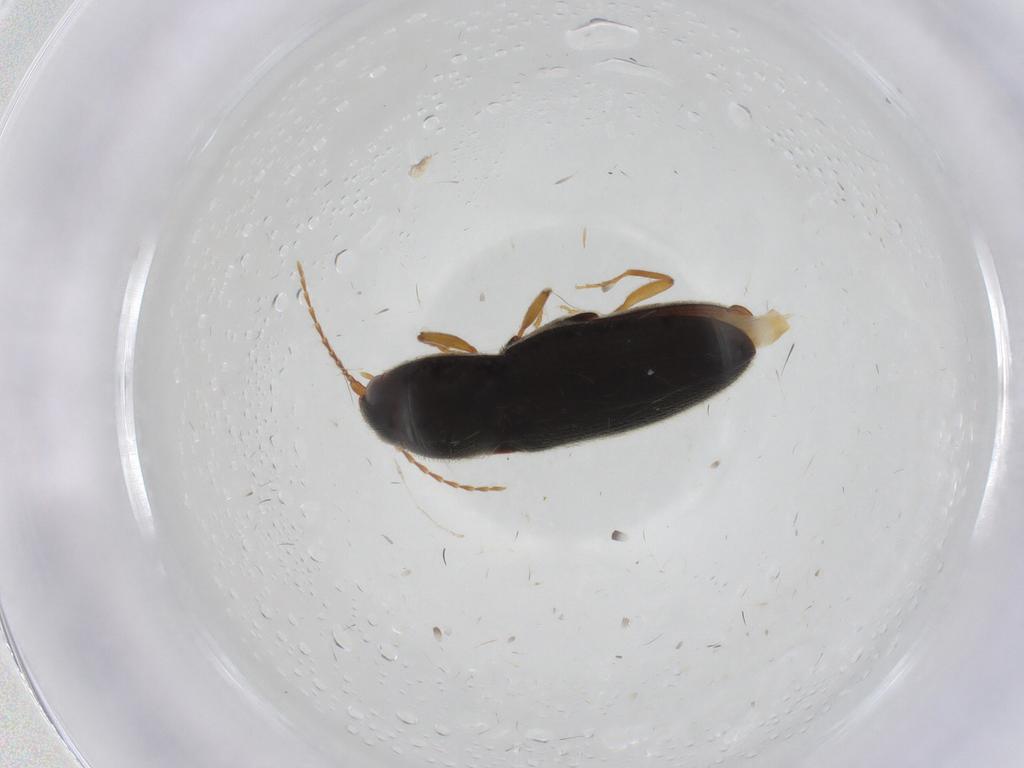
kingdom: Animalia
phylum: Arthropoda
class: Insecta
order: Coleoptera
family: Elateridae
